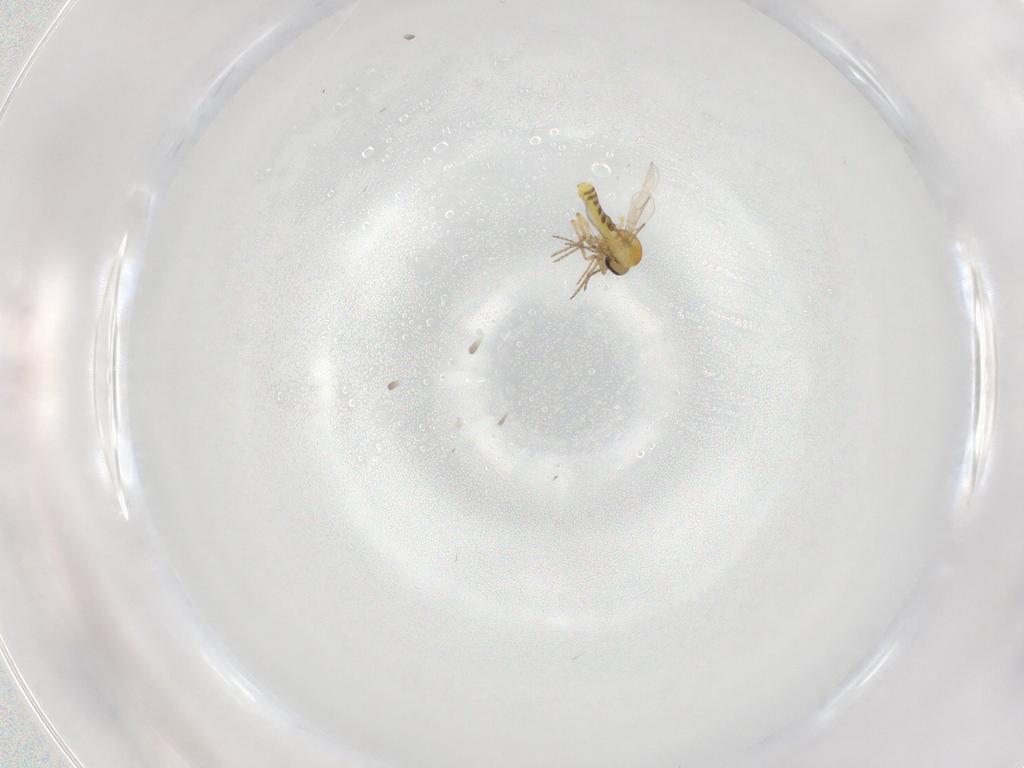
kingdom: Animalia
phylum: Arthropoda
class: Insecta
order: Diptera
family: Ceratopogonidae
